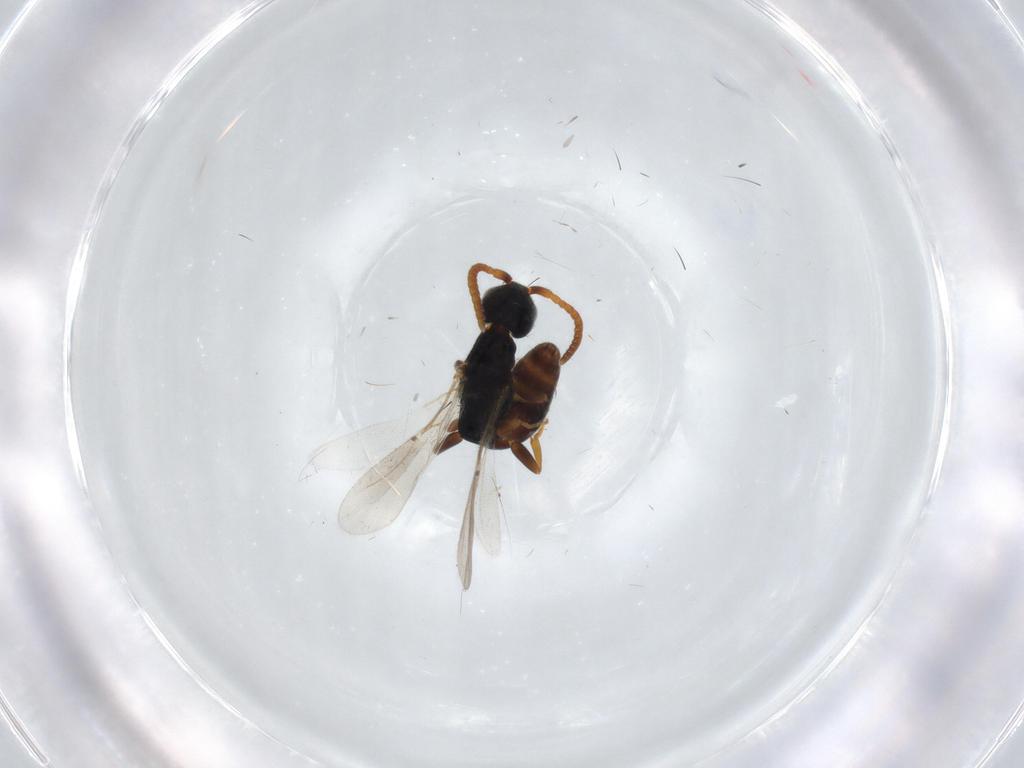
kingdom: Animalia
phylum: Arthropoda
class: Insecta
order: Hymenoptera
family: Bethylidae
